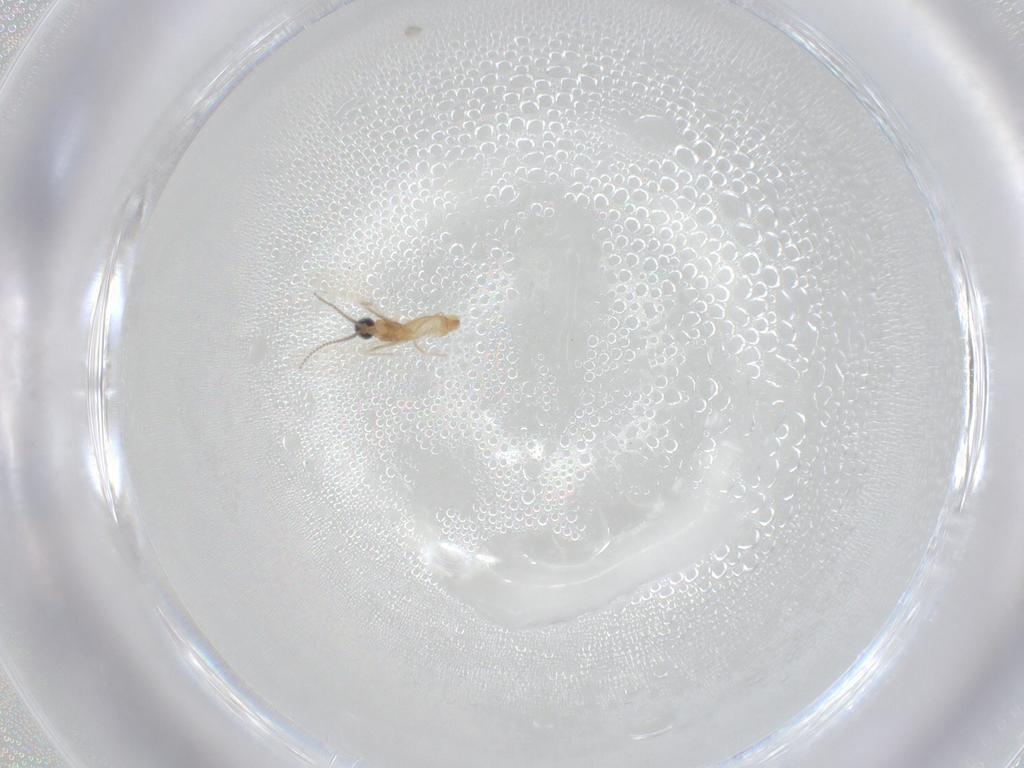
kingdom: Animalia
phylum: Arthropoda
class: Insecta
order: Diptera
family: Cecidomyiidae
